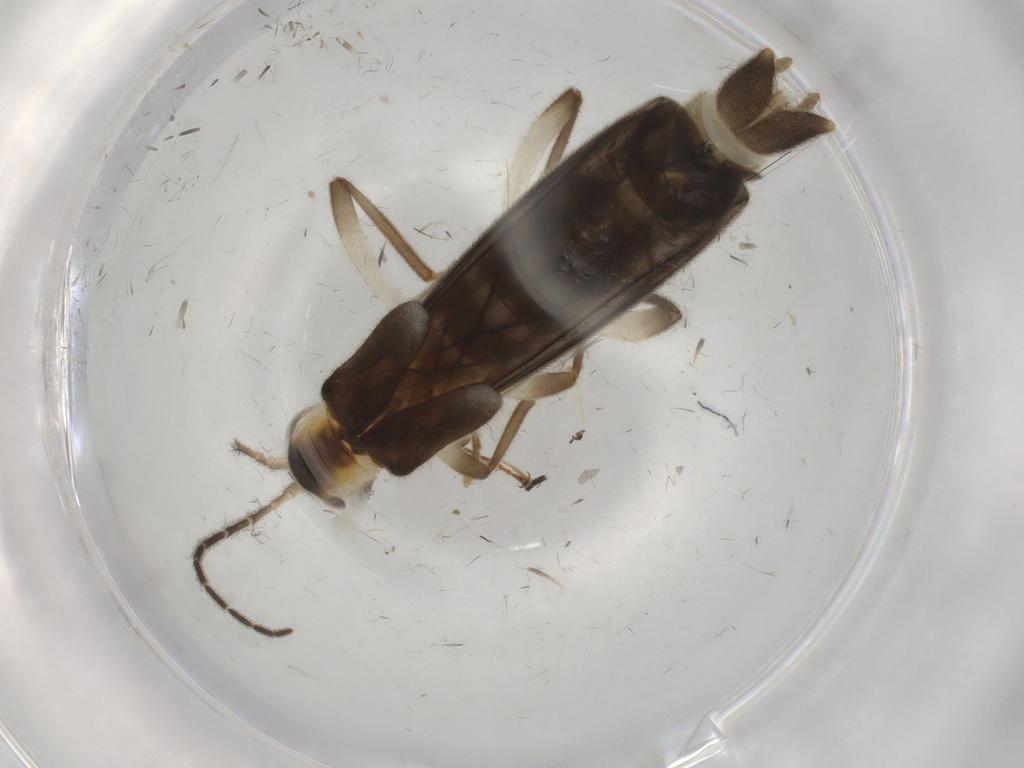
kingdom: Animalia
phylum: Arthropoda
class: Insecta
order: Coleoptera
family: Cantharidae
